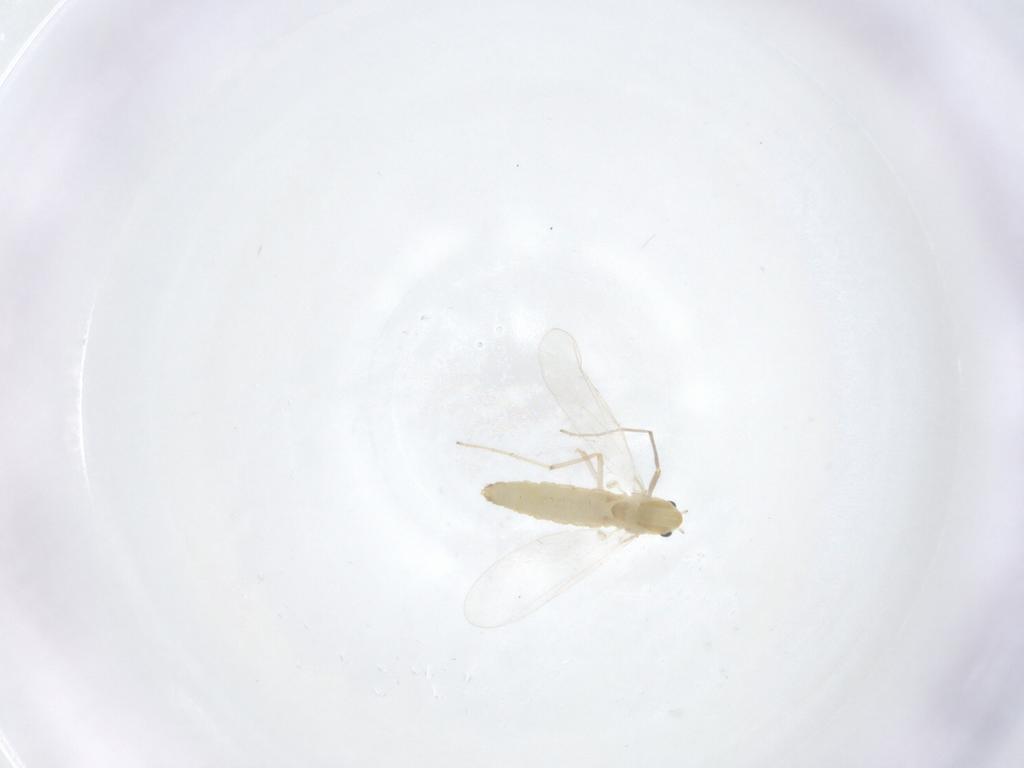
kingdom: Animalia
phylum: Arthropoda
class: Insecta
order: Diptera
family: Chironomidae
